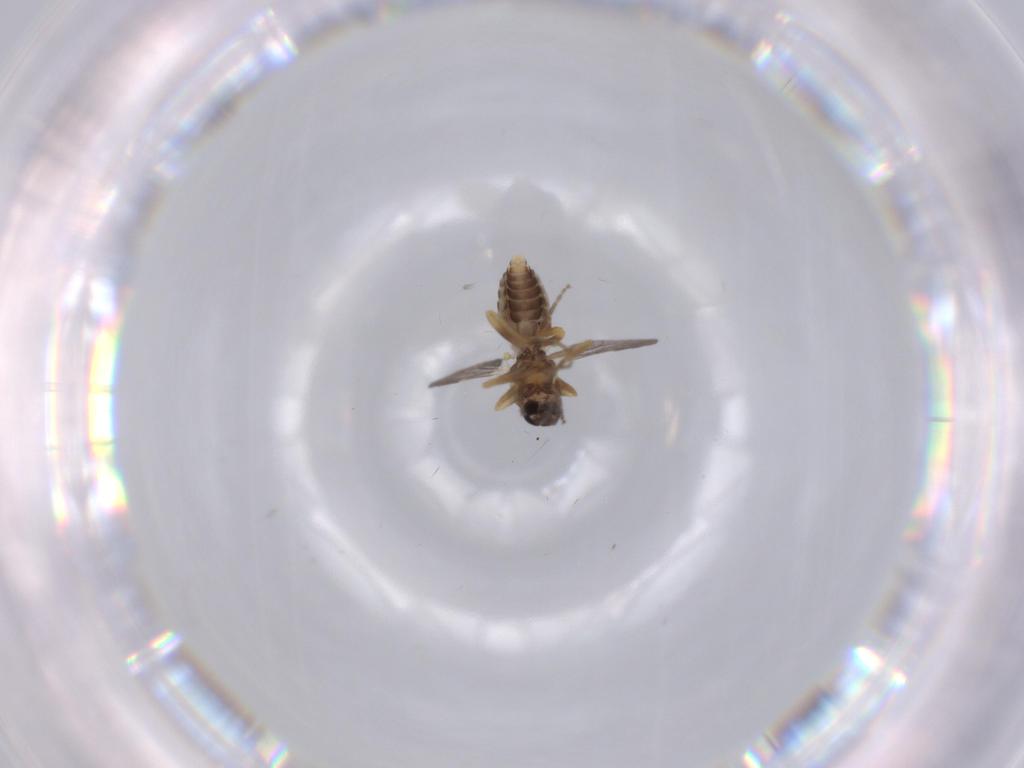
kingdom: Animalia
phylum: Arthropoda
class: Insecta
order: Diptera
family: Ceratopogonidae
